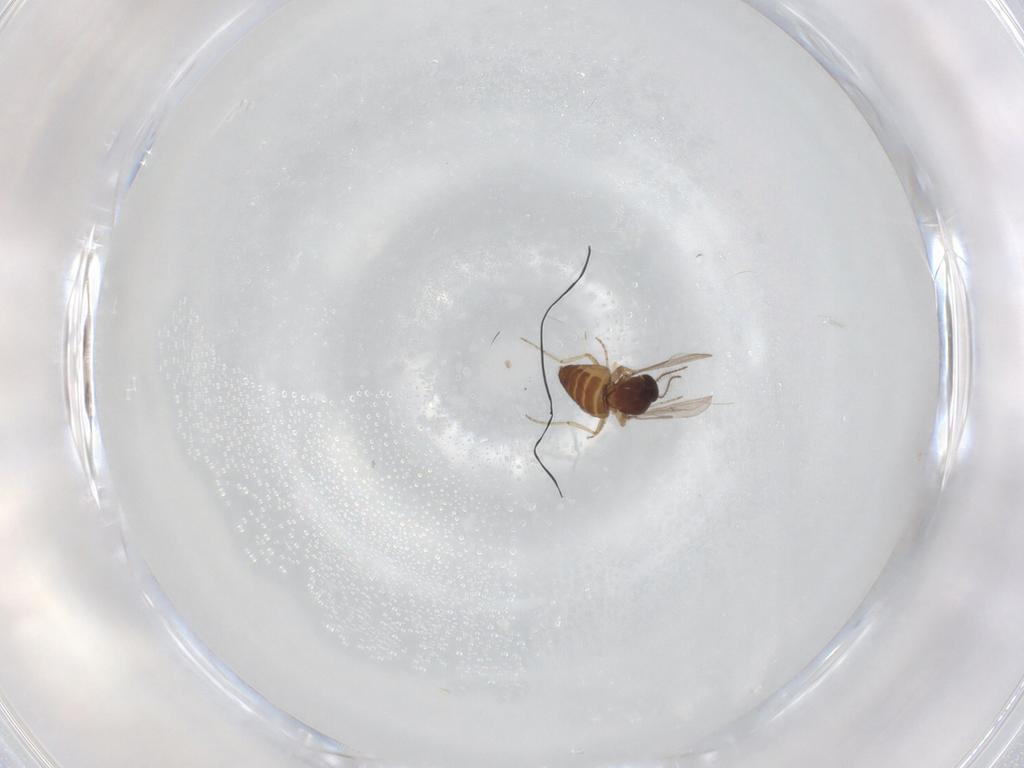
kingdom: Animalia
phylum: Arthropoda
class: Insecta
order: Diptera
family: Ceratopogonidae
